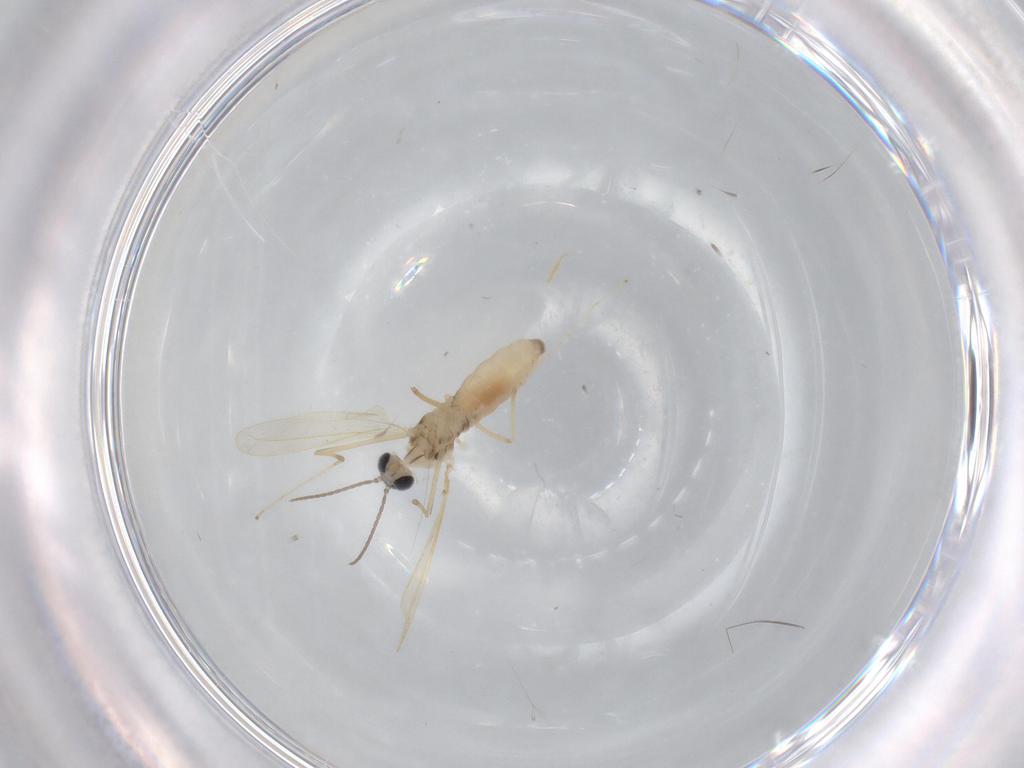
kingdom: Animalia
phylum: Arthropoda
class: Insecta
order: Diptera
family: Cecidomyiidae
